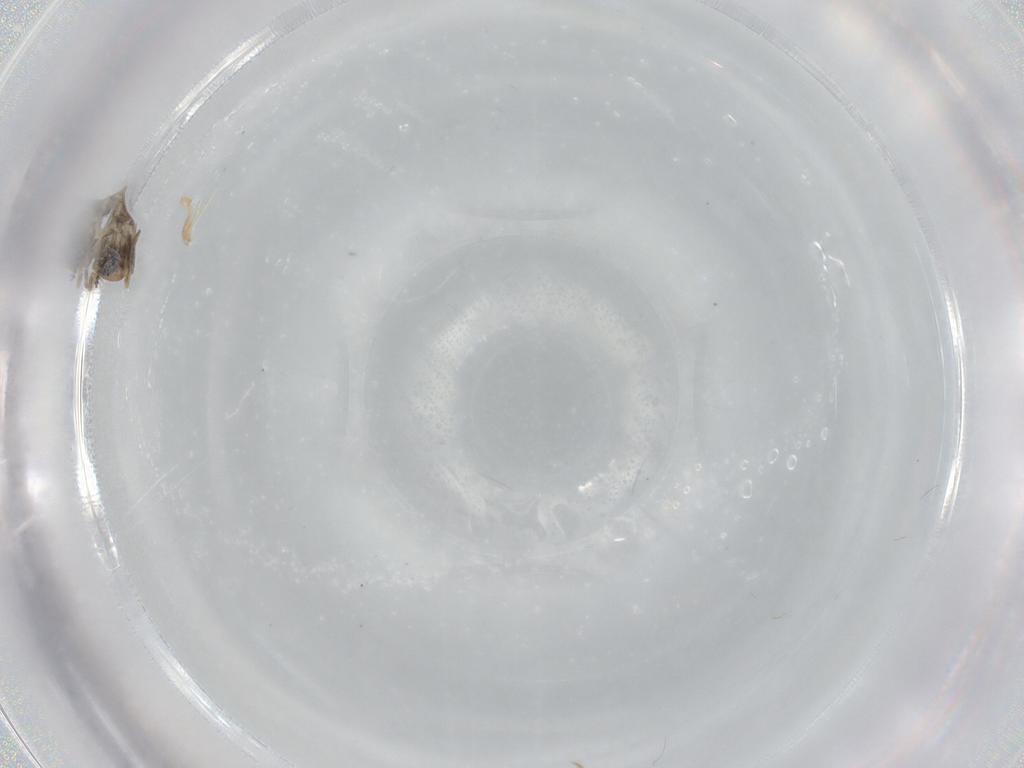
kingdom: Animalia
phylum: Arthropoda
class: Insecta
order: Diptera
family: Cecidomyiidae
